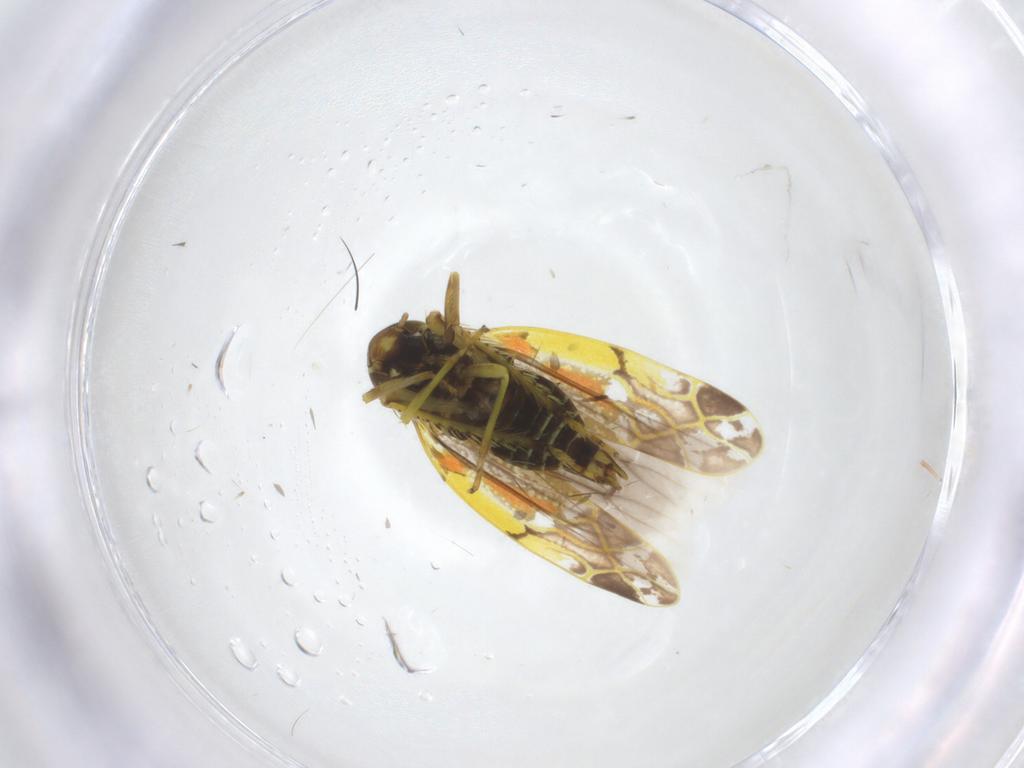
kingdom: Animalia
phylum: Arthropoda
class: Insecta
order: Hemiptera
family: Cicadellidae
